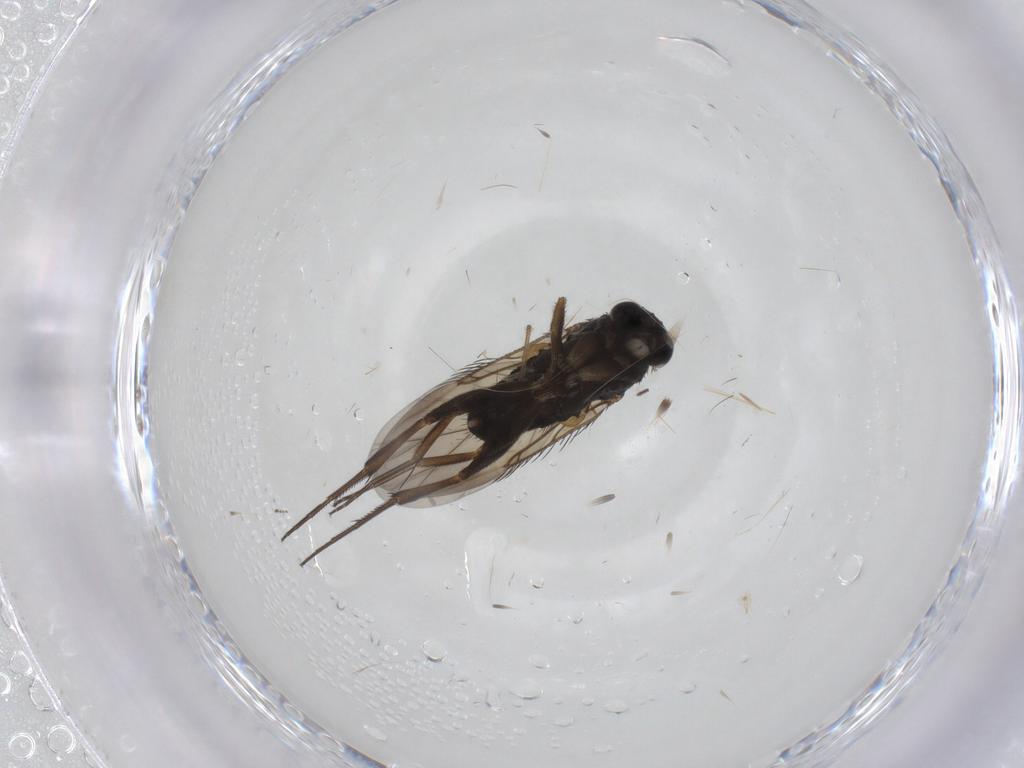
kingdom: Animalia
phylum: Arthropoda
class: Insecta
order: Diptera
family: Phoridae
